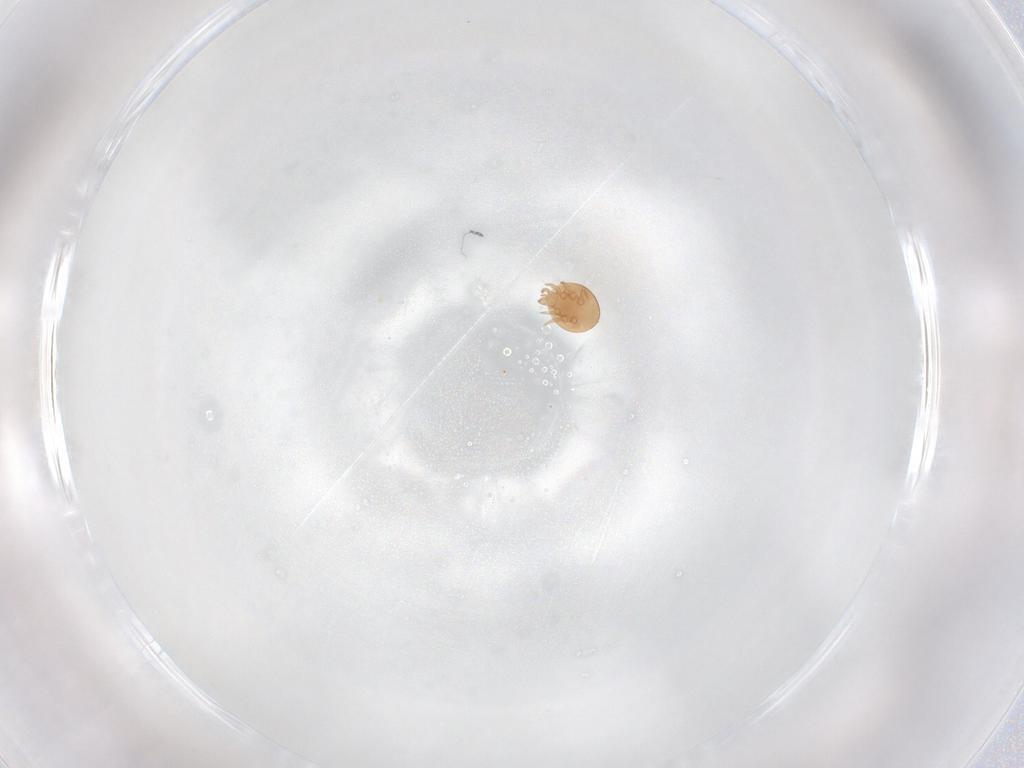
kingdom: Animalia
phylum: Arthropoda
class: Arachnida
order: Mesostigmata
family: Trematuridae
